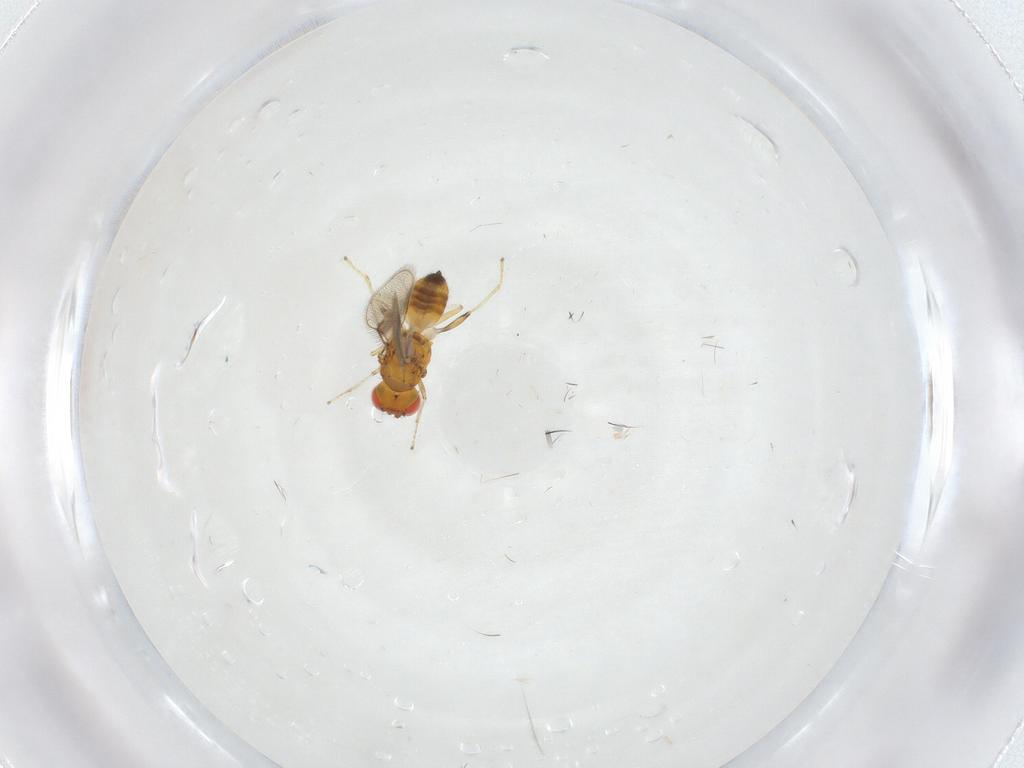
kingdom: Animalia
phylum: Arthropoda
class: Insecta
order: Hymenoptera
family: Eulophidae
